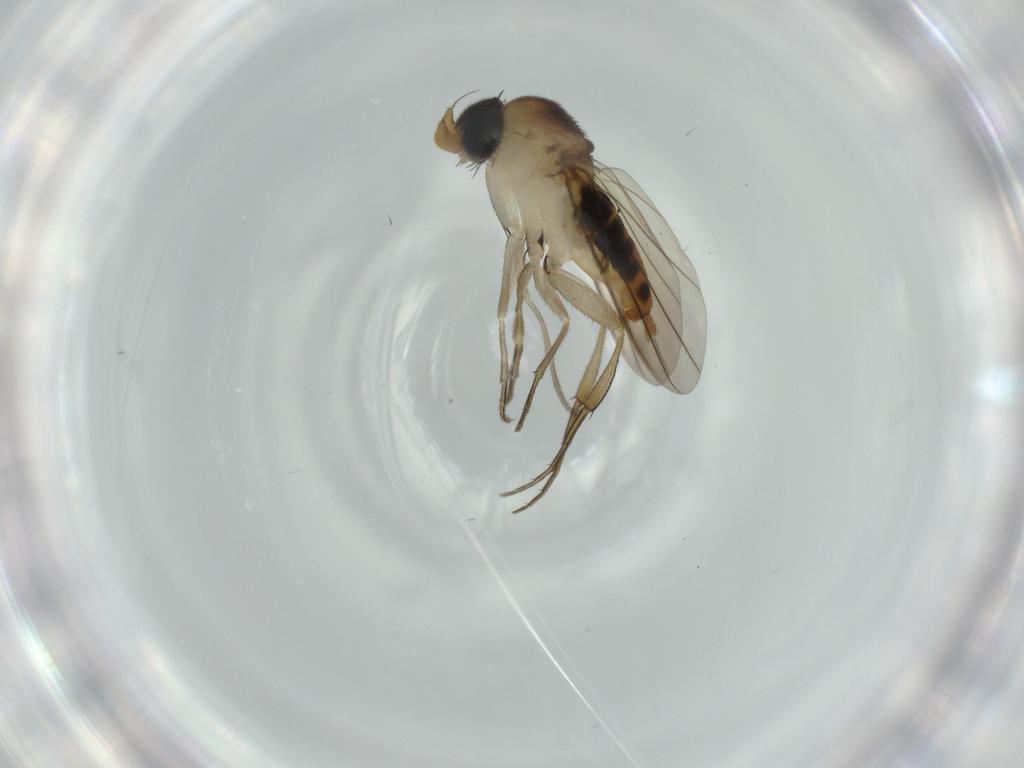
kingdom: Animalia
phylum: Arthropoda
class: Insecta
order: Diptera
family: Phoridae
